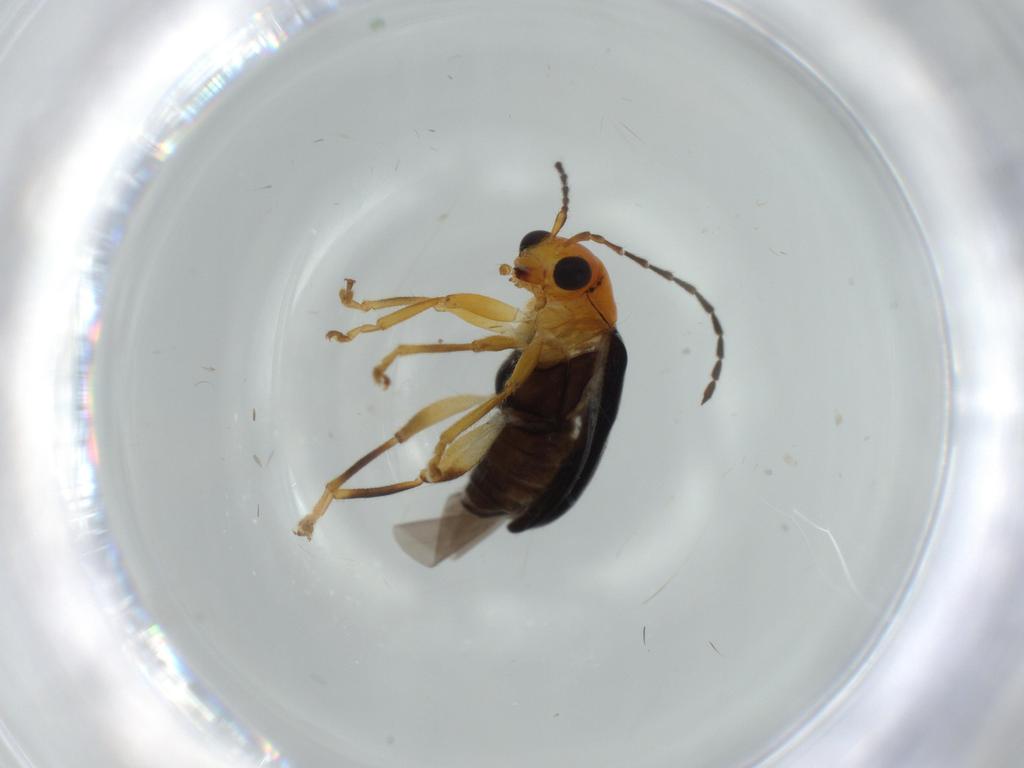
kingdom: Animalia
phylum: Arthropoda
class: Insecta
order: Coleoptera
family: Chrysomelidae
